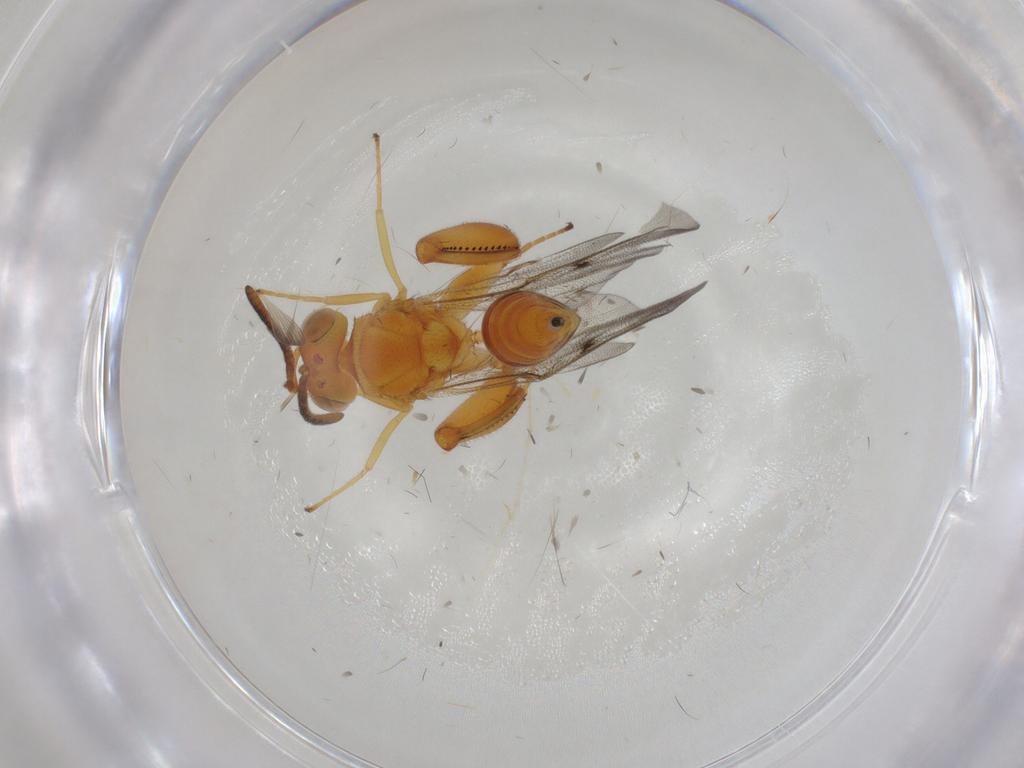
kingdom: Animalia
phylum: Arthropoda
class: Insecta
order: Hymenoptera
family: Chalcididae
